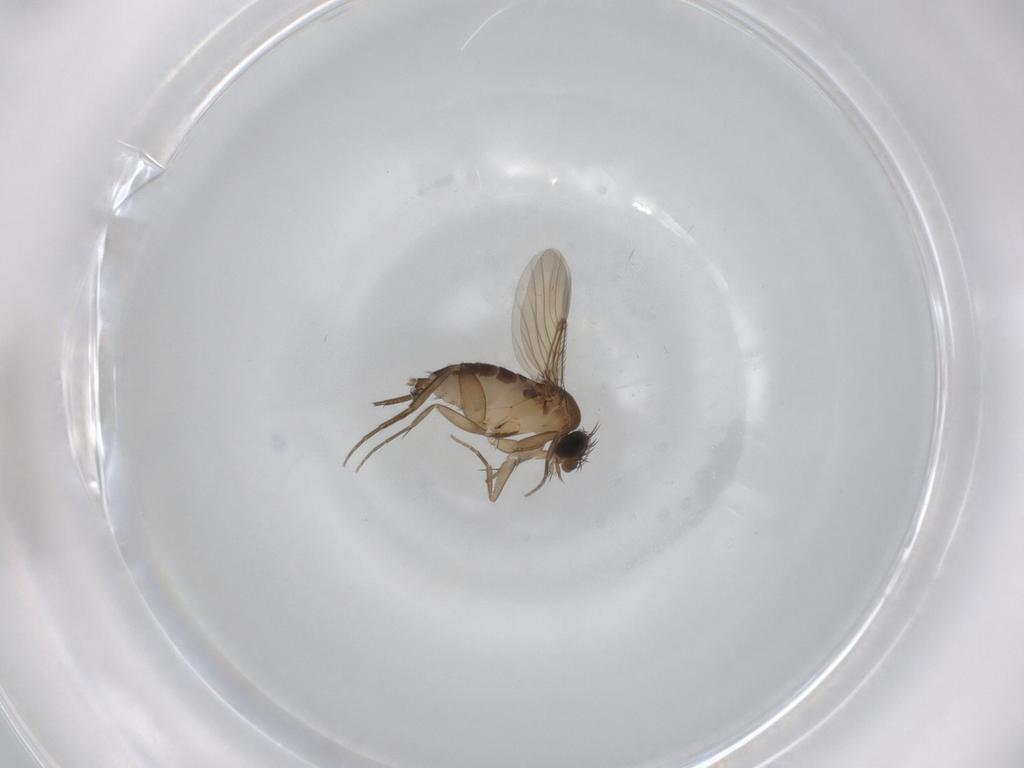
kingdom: Animalia
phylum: Arthropoda
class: Insecta
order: Diptera
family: Phoridae
